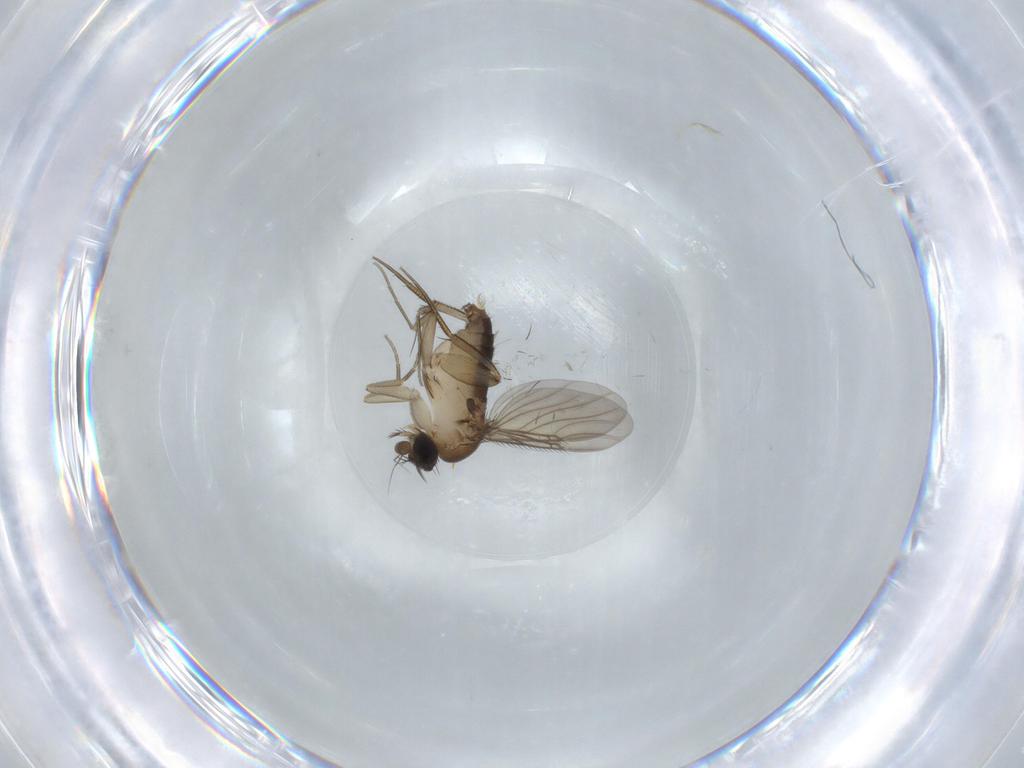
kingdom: Animalia
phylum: Arthropoda
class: Insecta
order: Diptera
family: Phoridae
